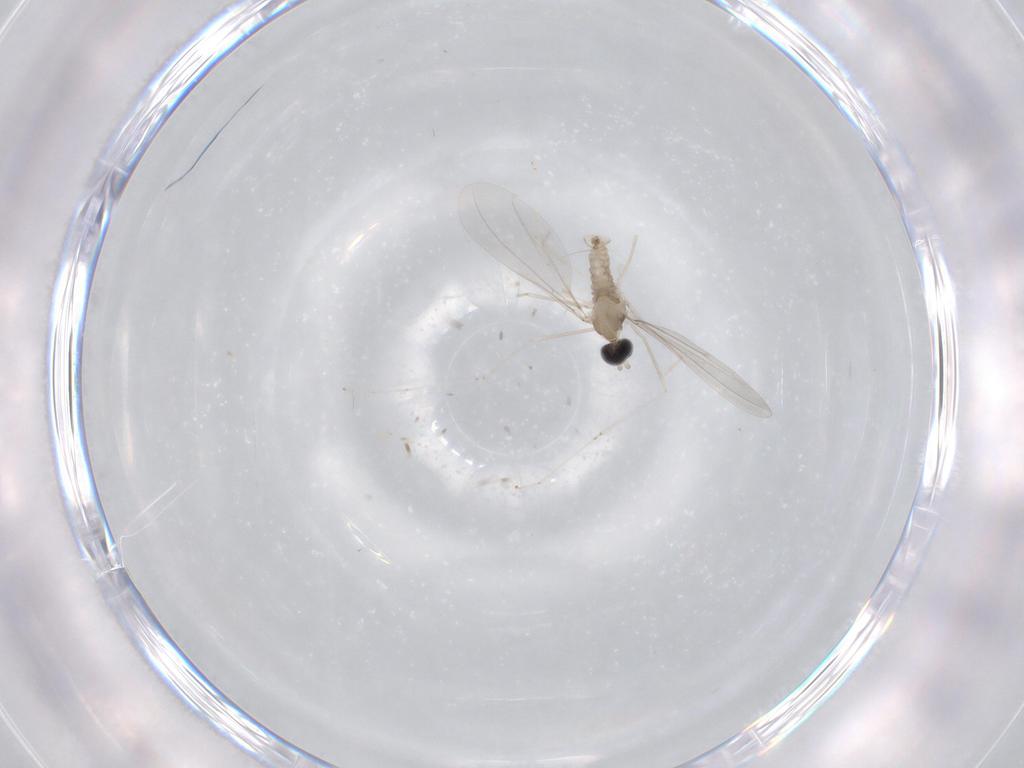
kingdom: Animalia
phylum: Arthropoda
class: Insecta
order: Diptera
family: Cecidomyiidae
